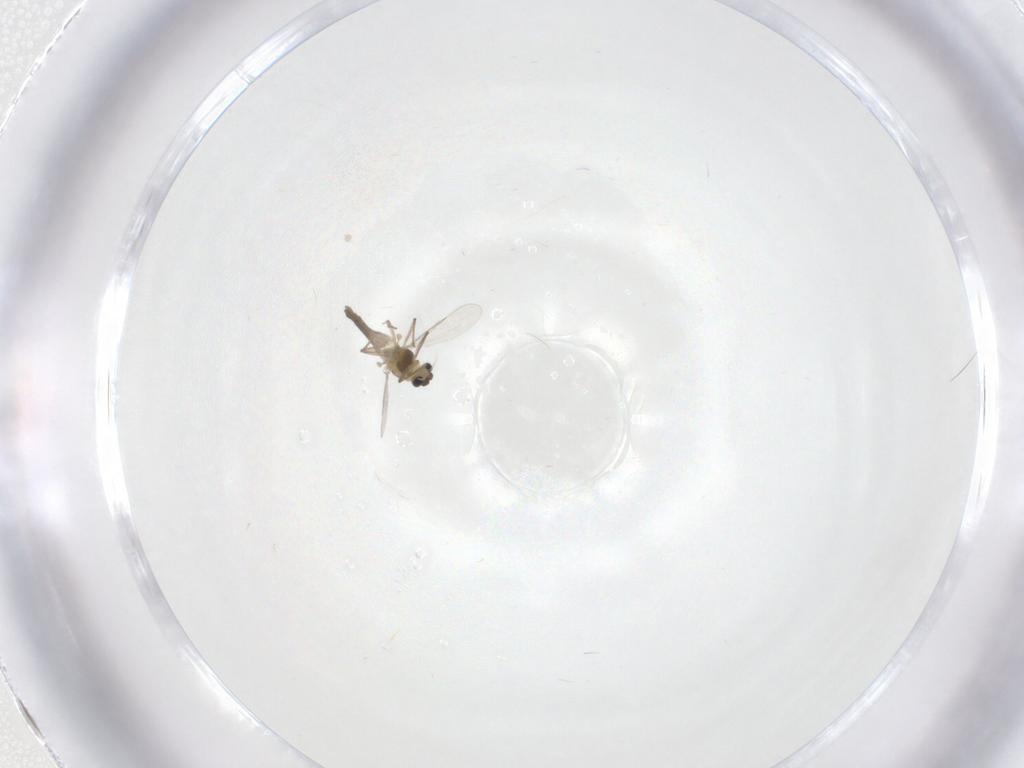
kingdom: Animalia
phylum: Arthropoda
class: Insecta
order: Diptera
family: Chironomidae
